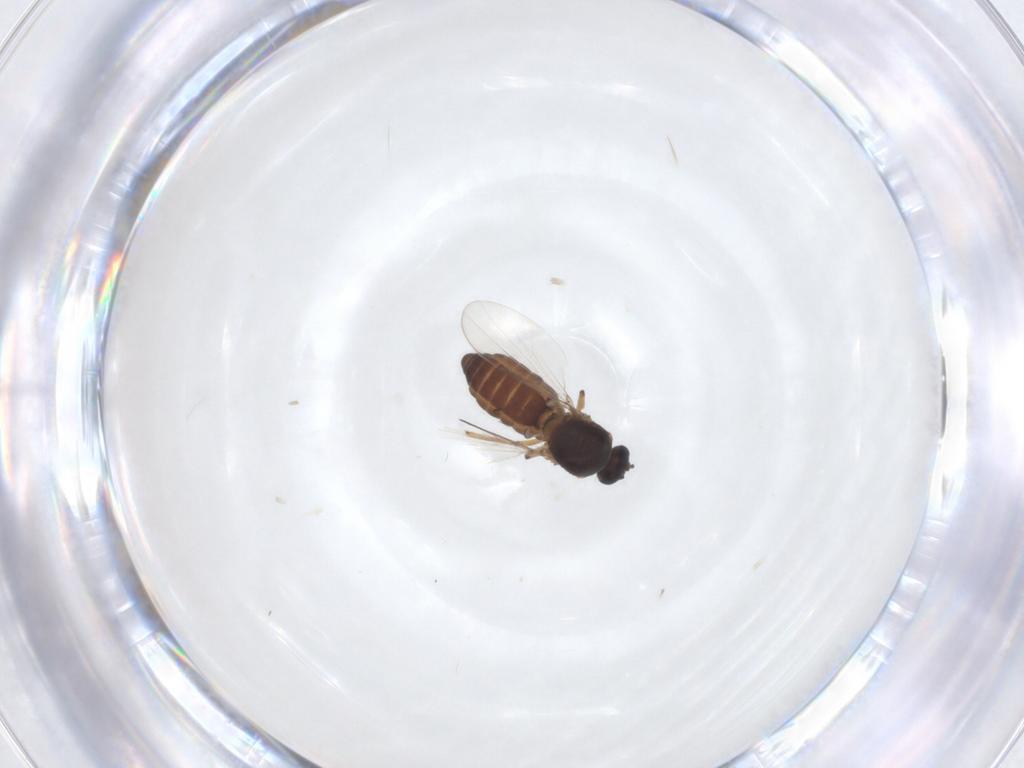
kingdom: Animalia
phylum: Arthropoda
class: Insecta
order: Diptera
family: Ceratopogonidae
